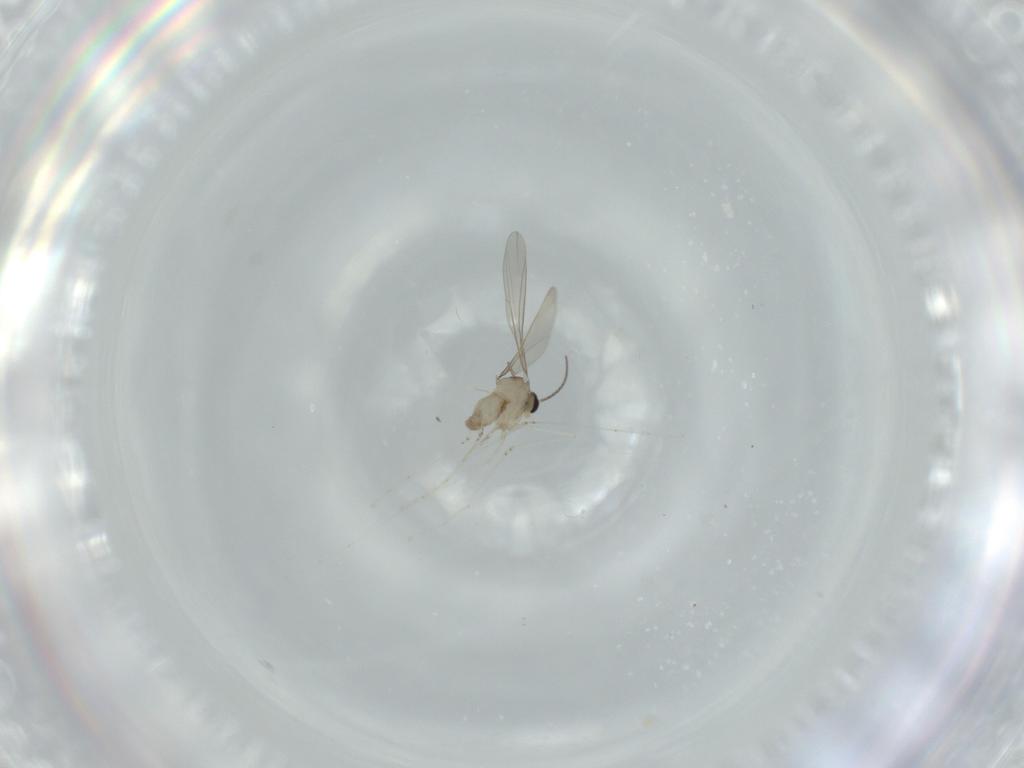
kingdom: Animalia
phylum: Arthropoda
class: Insecta
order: Diptera
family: Cecidomyiidae
